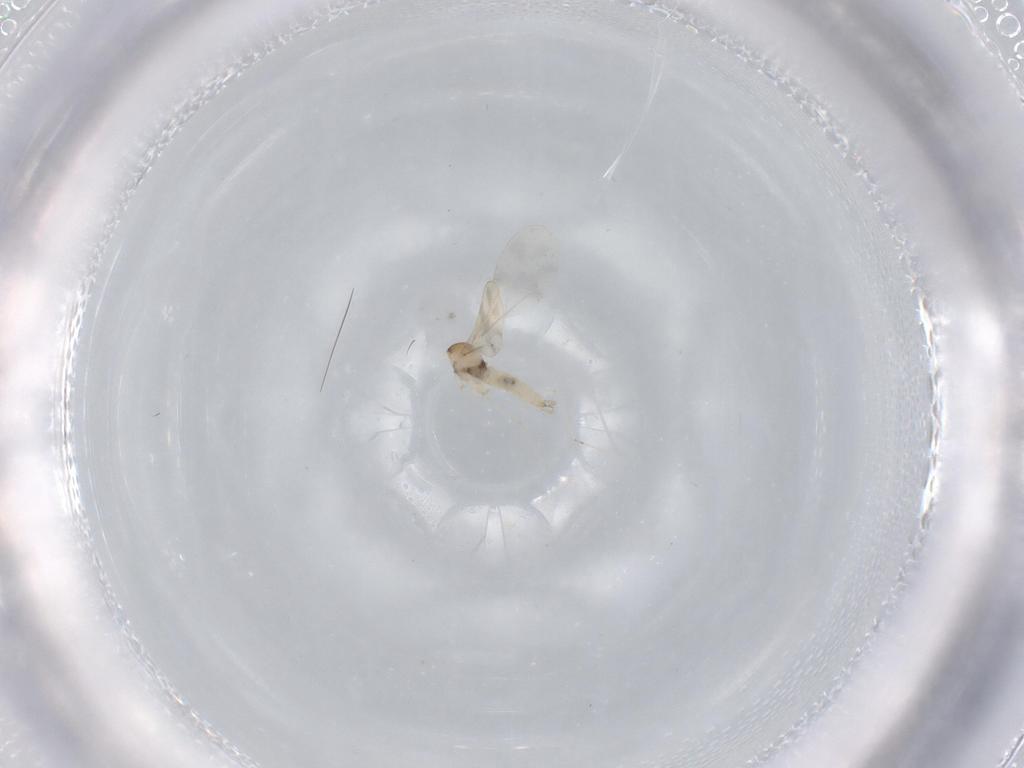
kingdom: Animalia
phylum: Arthropoda
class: Insecta
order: Diptera
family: Cecidomyiidae
